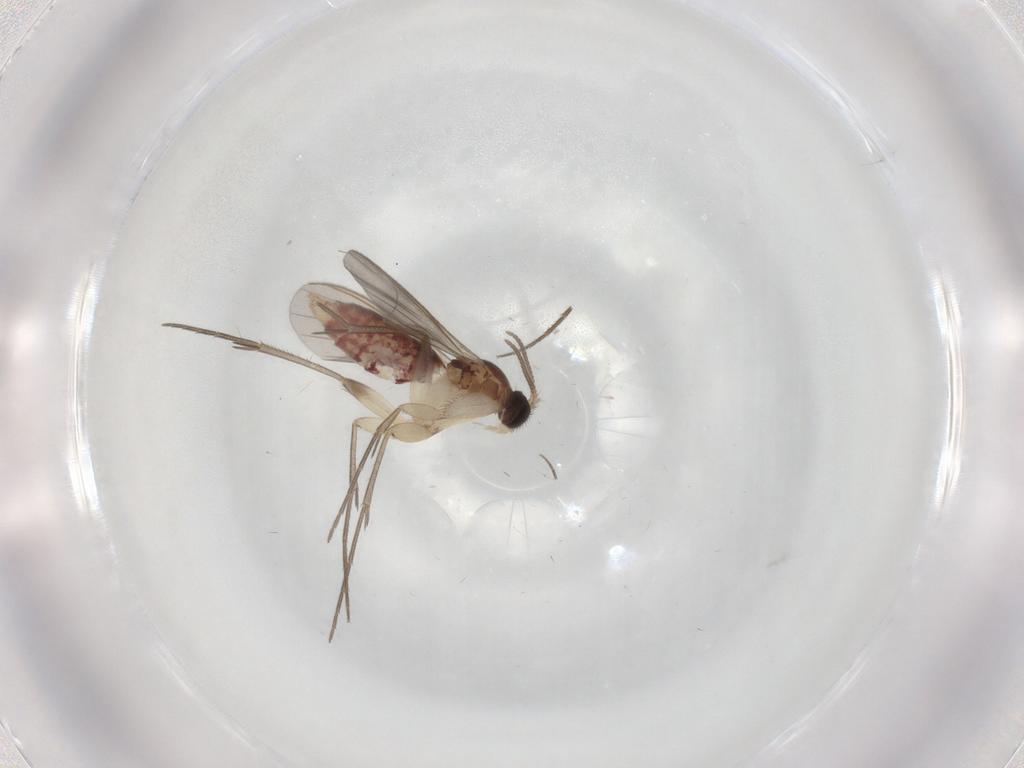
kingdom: Animalia
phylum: Arthropoda
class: Insecta
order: Diptera
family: Mycetophilidae
